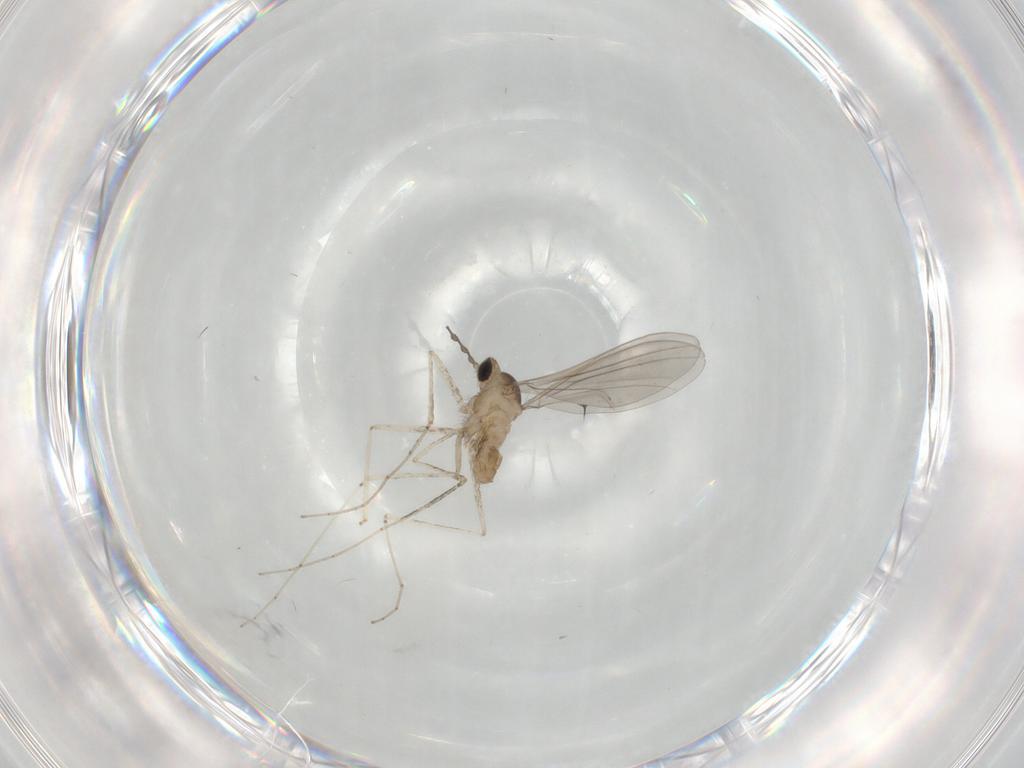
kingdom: Animalia
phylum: Arthropoda
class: Insecta
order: Diptera
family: Cecidomyiidae
